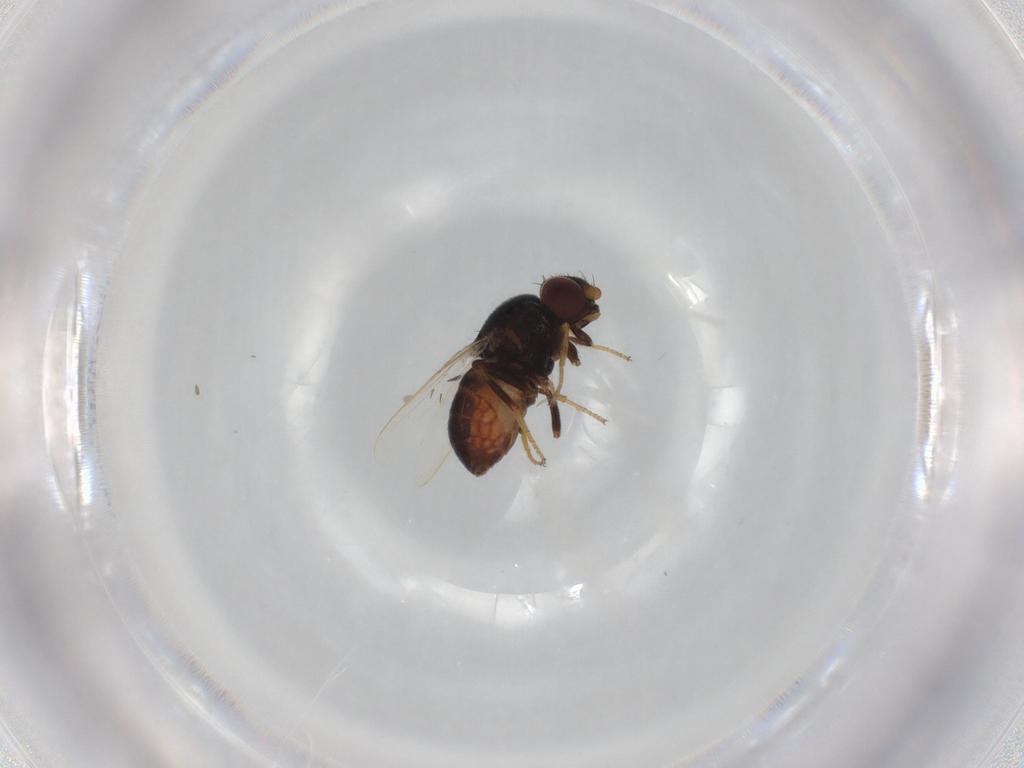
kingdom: Animalia
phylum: Arthropoda
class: Insecta
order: Diptera
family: Chloropidae
